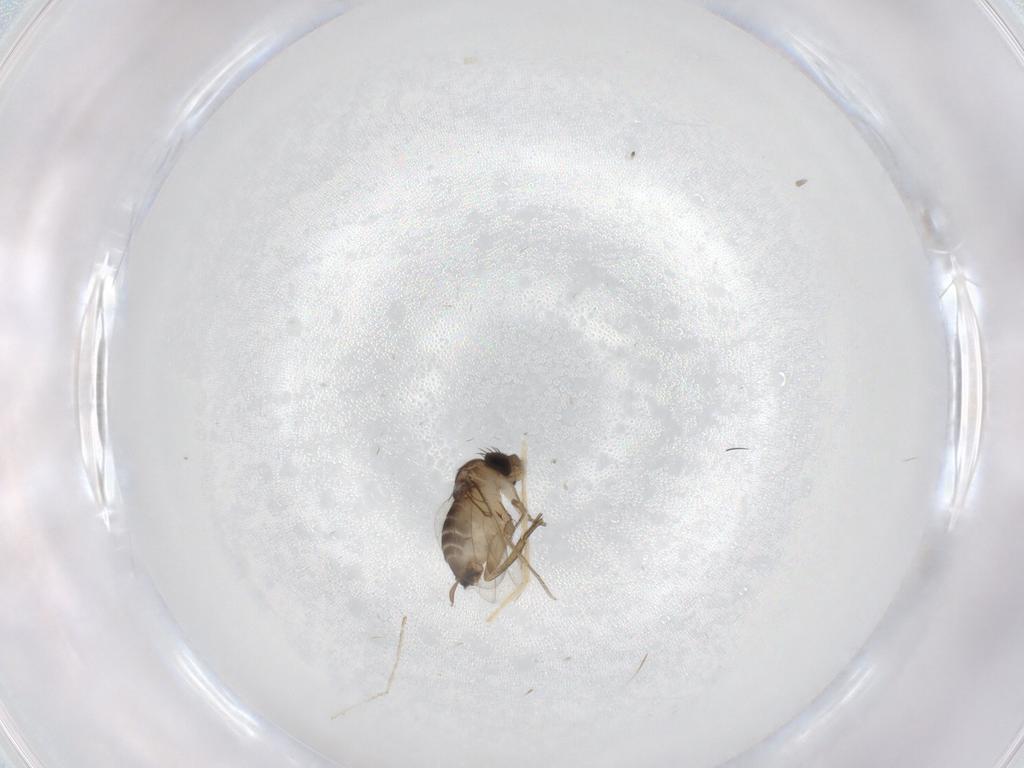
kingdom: Animalia
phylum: Arthropoda
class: Insecta
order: Diptera
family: Cecidomyiidae
